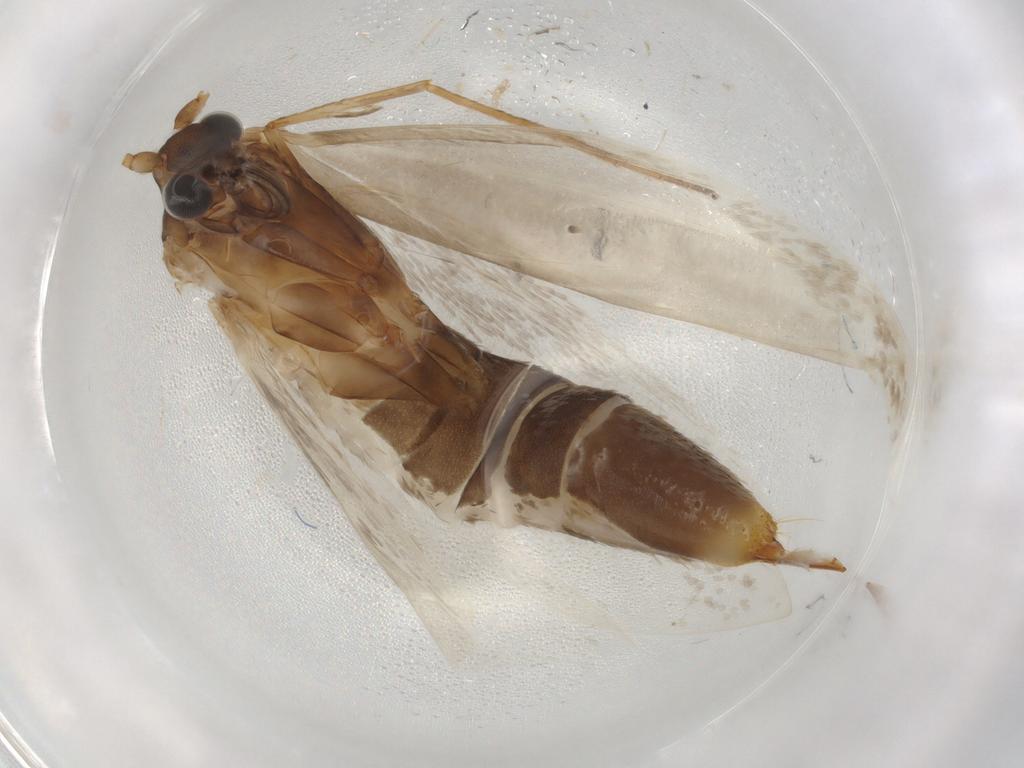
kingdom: Animalia
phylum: Arthropoda
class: Insecta
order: Lepidoptera
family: Adelidae
